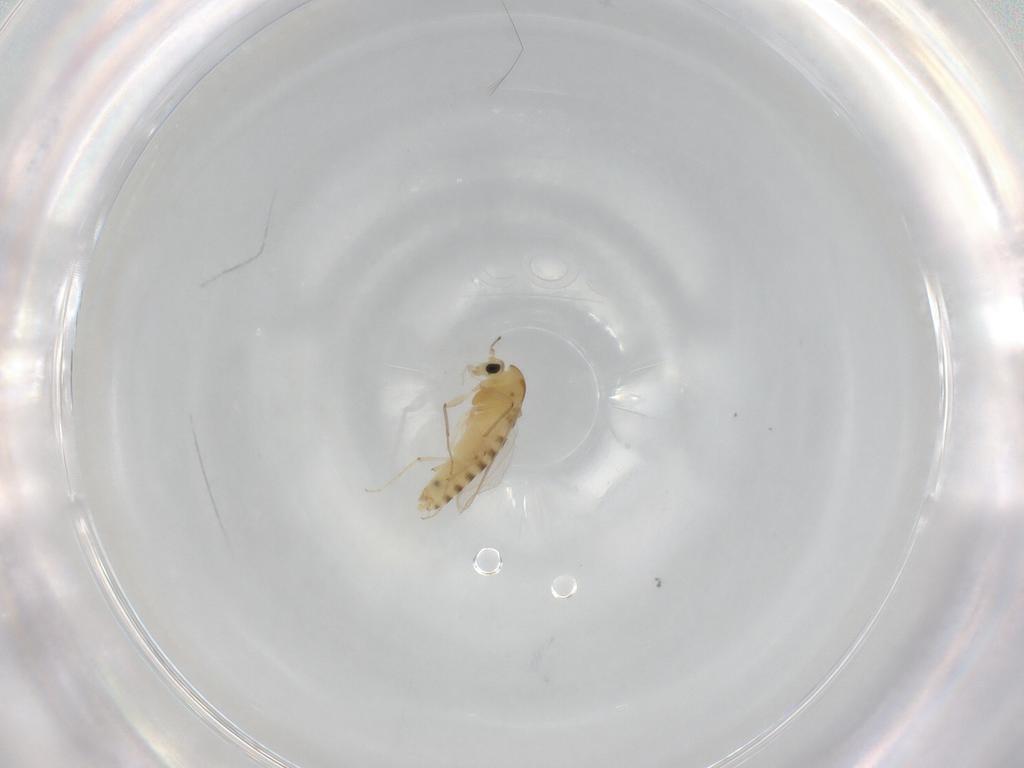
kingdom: Animalia
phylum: Arthropoda
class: Insecta
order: Diptera
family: Chironomidae
